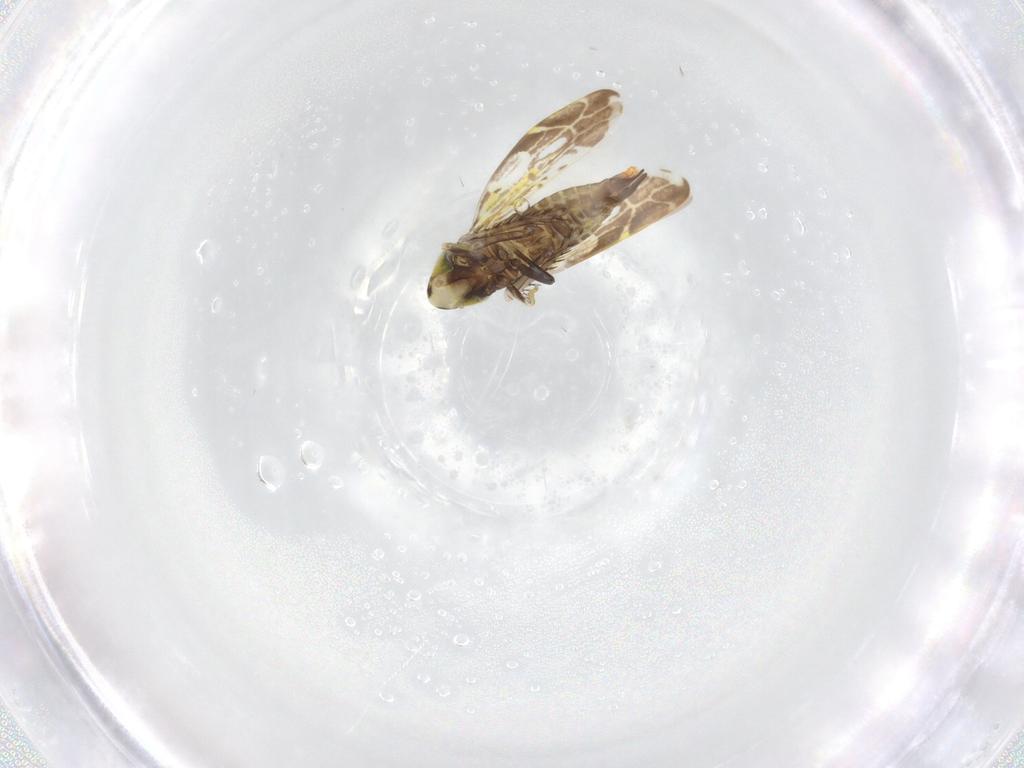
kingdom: Animalia
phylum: Arthropoda
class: Insecta
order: Hemiptera
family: Cicadellidae
